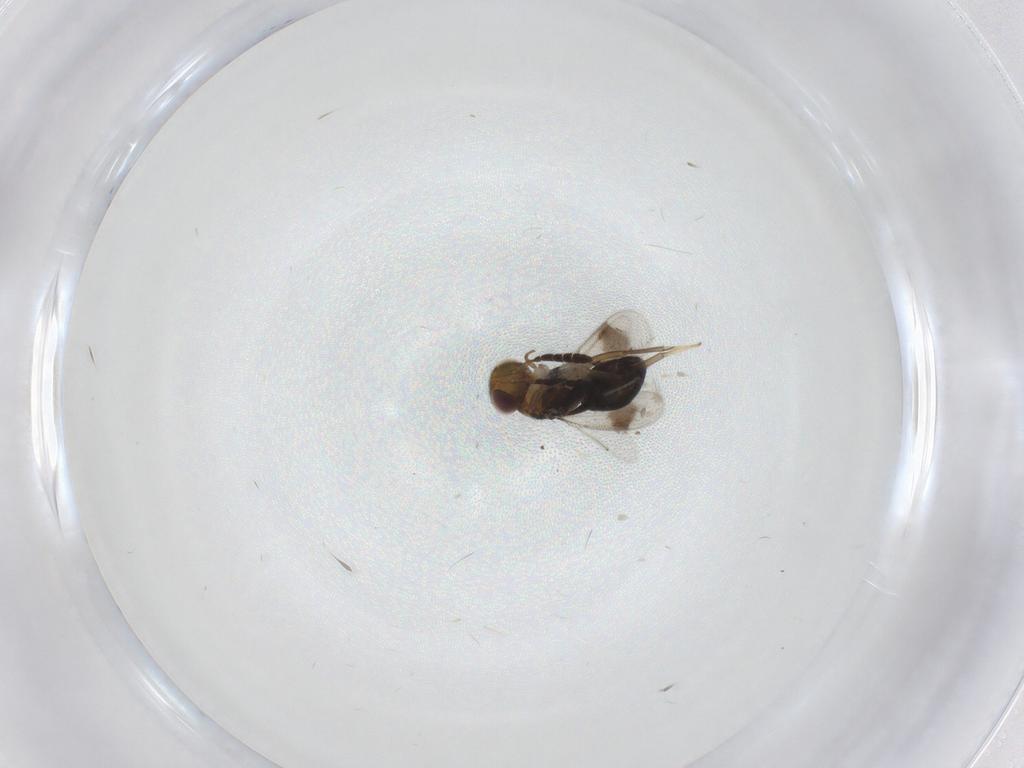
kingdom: Animalia
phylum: Arthropoda
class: Insecta
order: Hymenoptera
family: Aphelinidae
